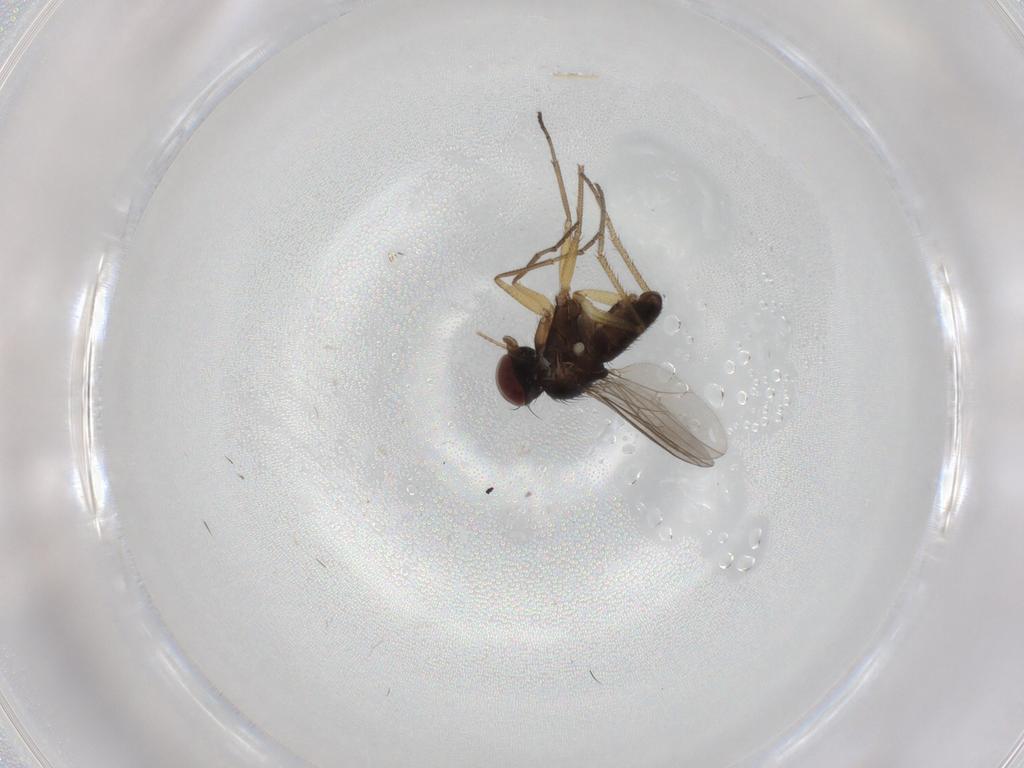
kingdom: Animalia
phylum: Arthropoda
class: Insecta
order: Diptera
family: Dolichopodidae
